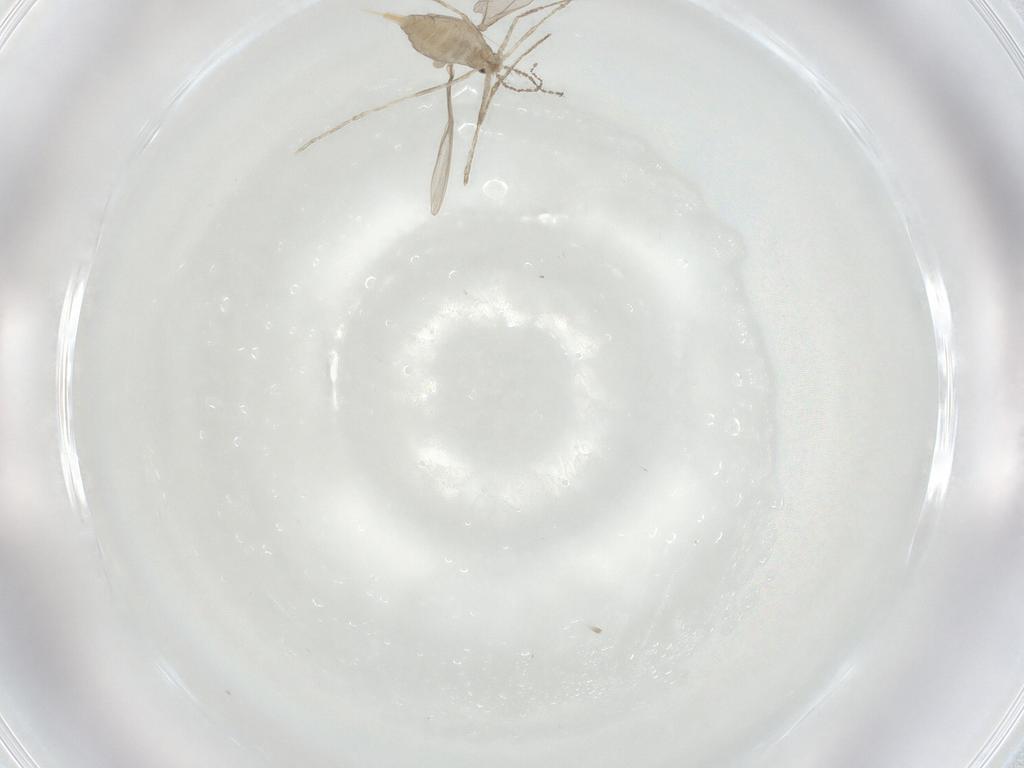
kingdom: Animalia
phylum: Arthropoda
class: Insecta
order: Diptera
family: Cecidomyiidae
